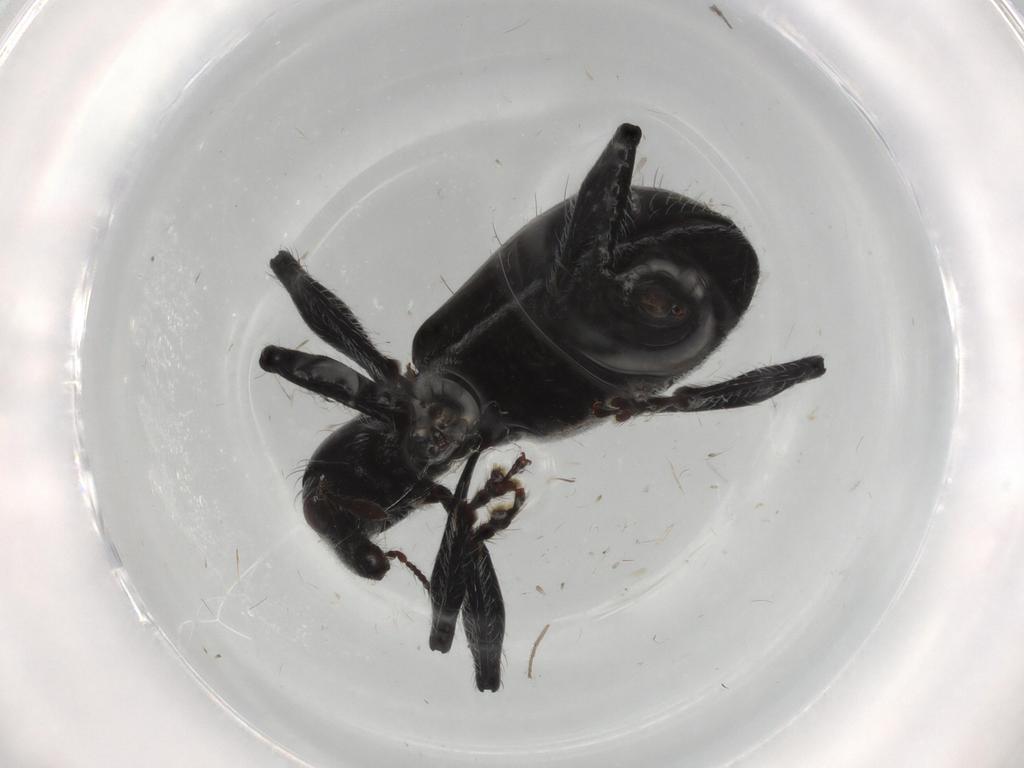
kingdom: Animalia
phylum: Arthropoda
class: Insecta
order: Coleoptera
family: Curculionidae
